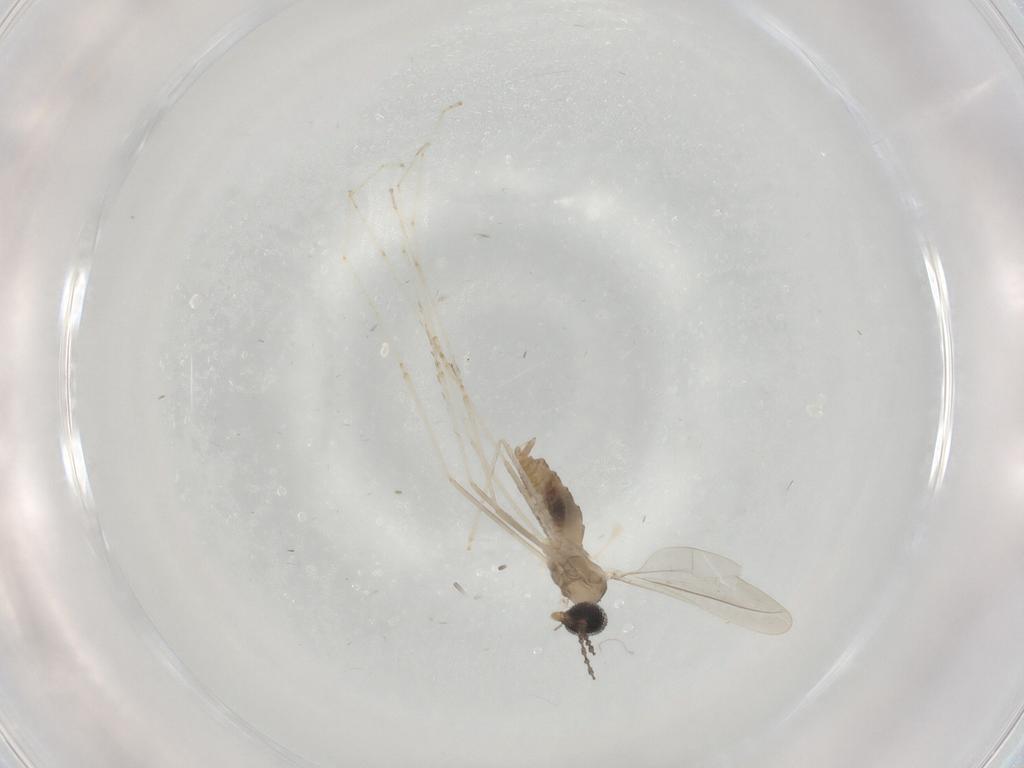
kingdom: Animalia
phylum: Arthropoda
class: Insecta
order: Diptera
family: Cecidomyiidae
